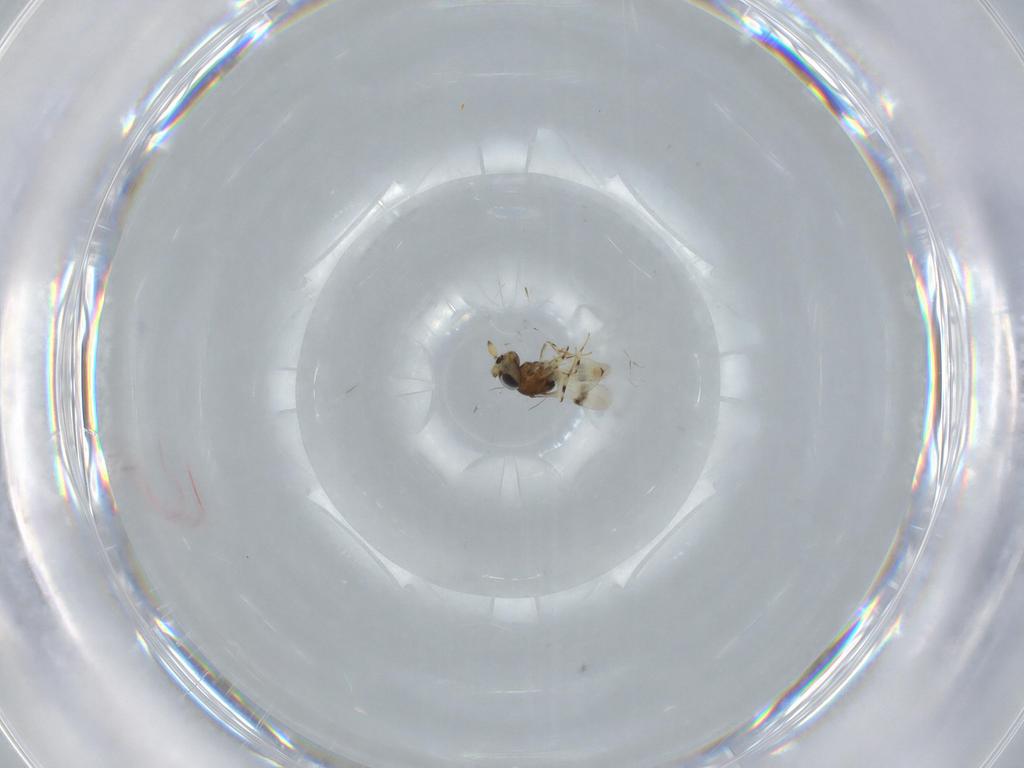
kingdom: Animalia
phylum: Arthropoda
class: Insecta
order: Hymenoptera
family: Scelionidae
